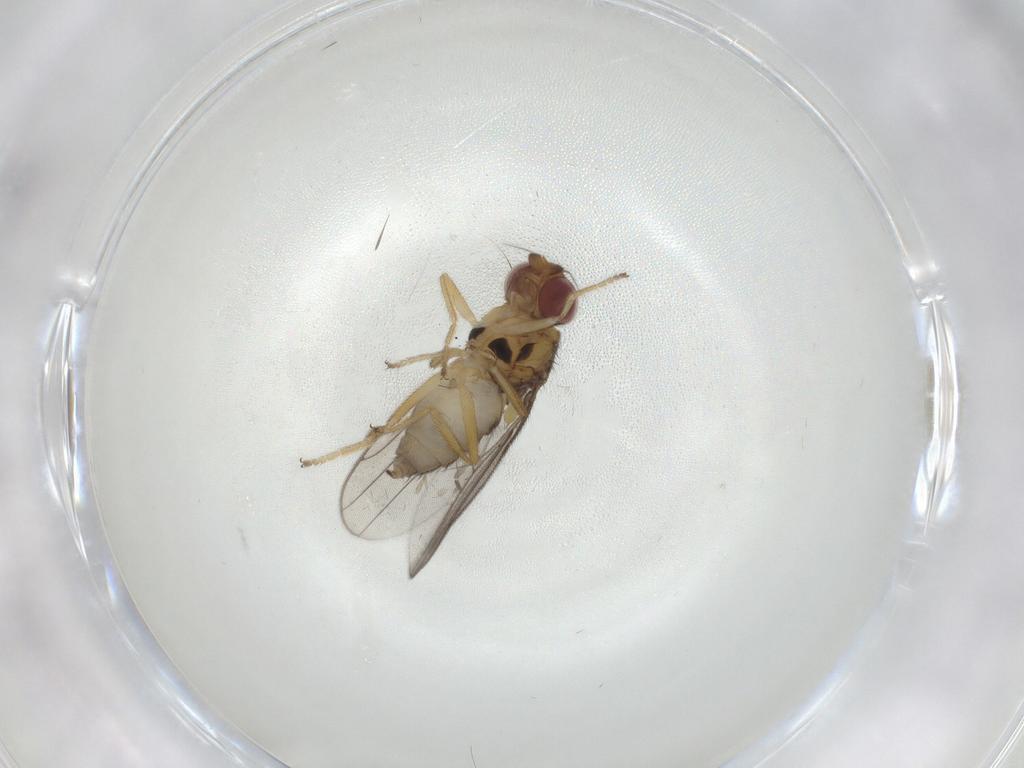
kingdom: Animalia
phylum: Arthropoda
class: Insecta
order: Diptera
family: Chloropidae
